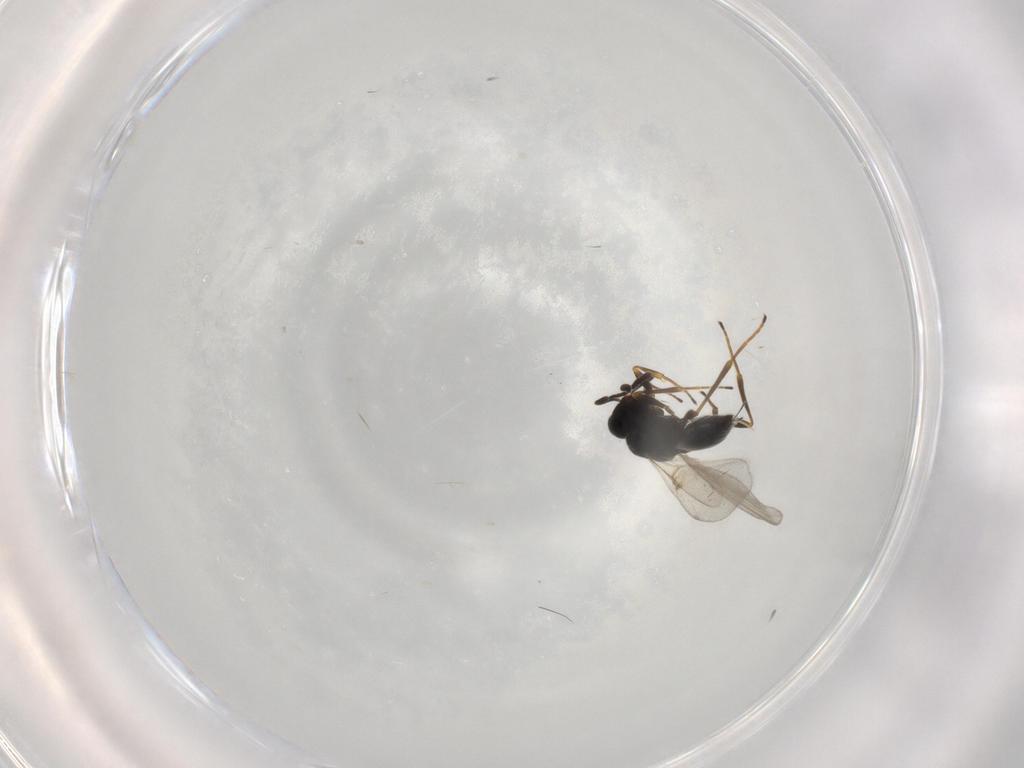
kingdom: Animalia
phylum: Arthropoda
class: Insecta
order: Hymenoptera
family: Platygastridae
